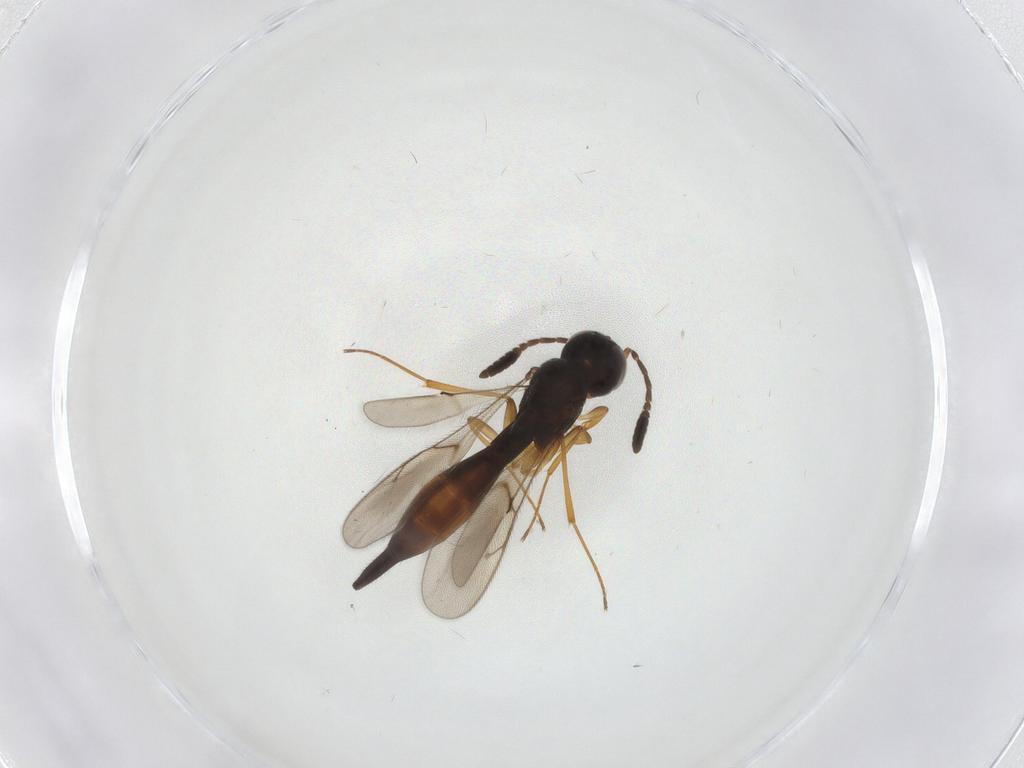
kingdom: Animalia
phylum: Arthropoda
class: Insecta
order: Hymenoptera
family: Scelionidae
